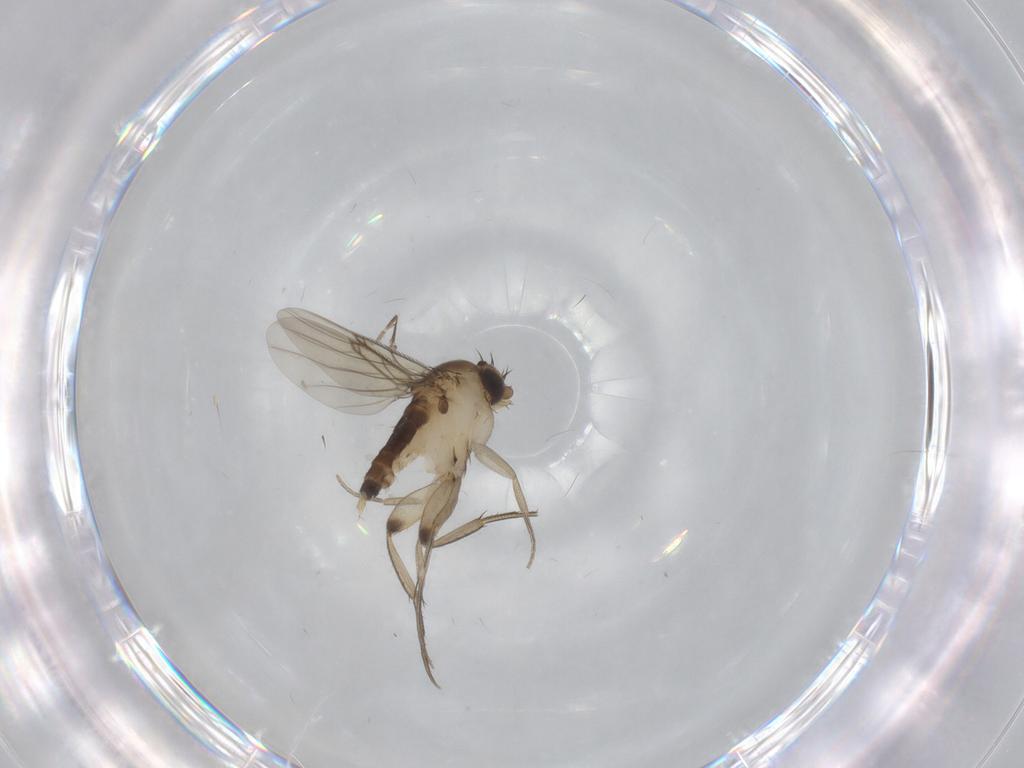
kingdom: Animalia
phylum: Arthropoda
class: Insecta
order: Diptera
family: Phoridae
